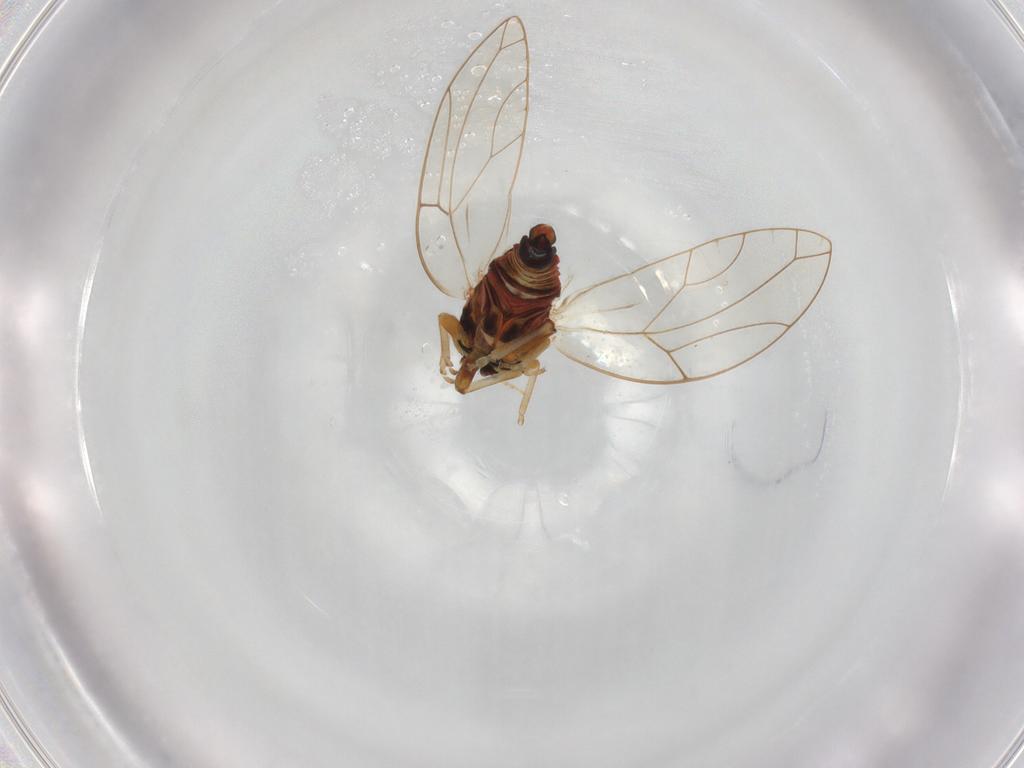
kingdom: Animalia
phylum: Arthropoda
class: Insecta
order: Hemiptera
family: Triozidae
